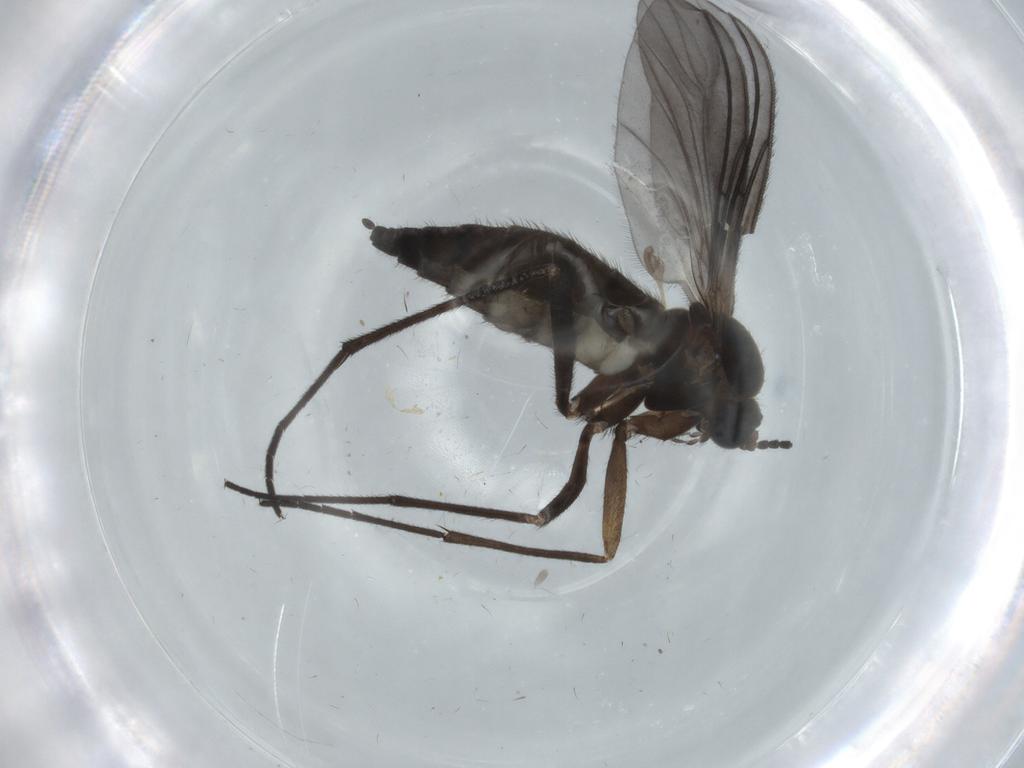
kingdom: Animalia
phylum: Arthropoda
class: Insecta
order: Diptera
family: Sciaridae
